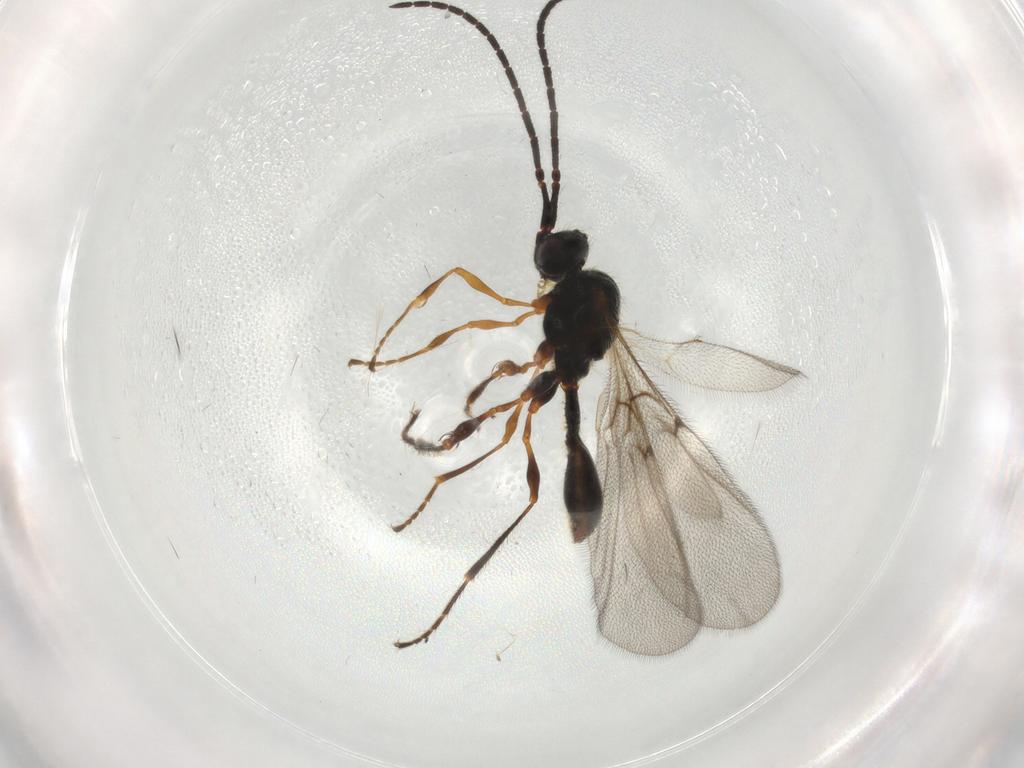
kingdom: Animalia
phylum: Arthropoda
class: Insecta
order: Hymenoptera
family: Diapriidae
